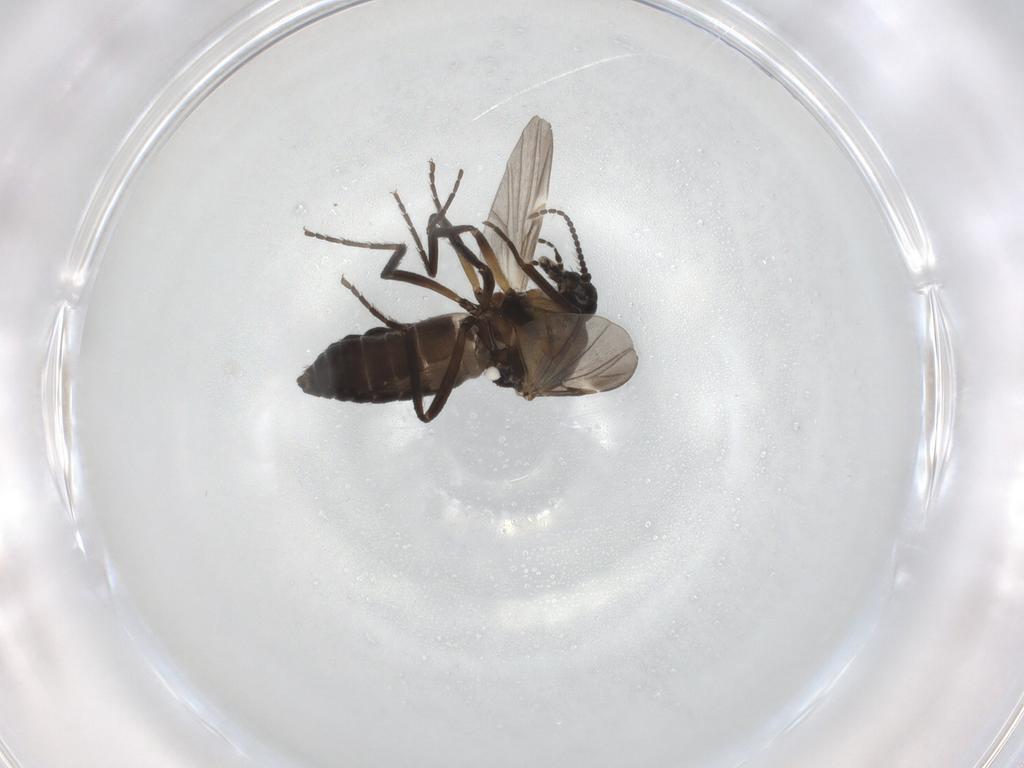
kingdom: Animalia
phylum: Arthropoda
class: Insecta
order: Diptera
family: Ceratopogonidae
